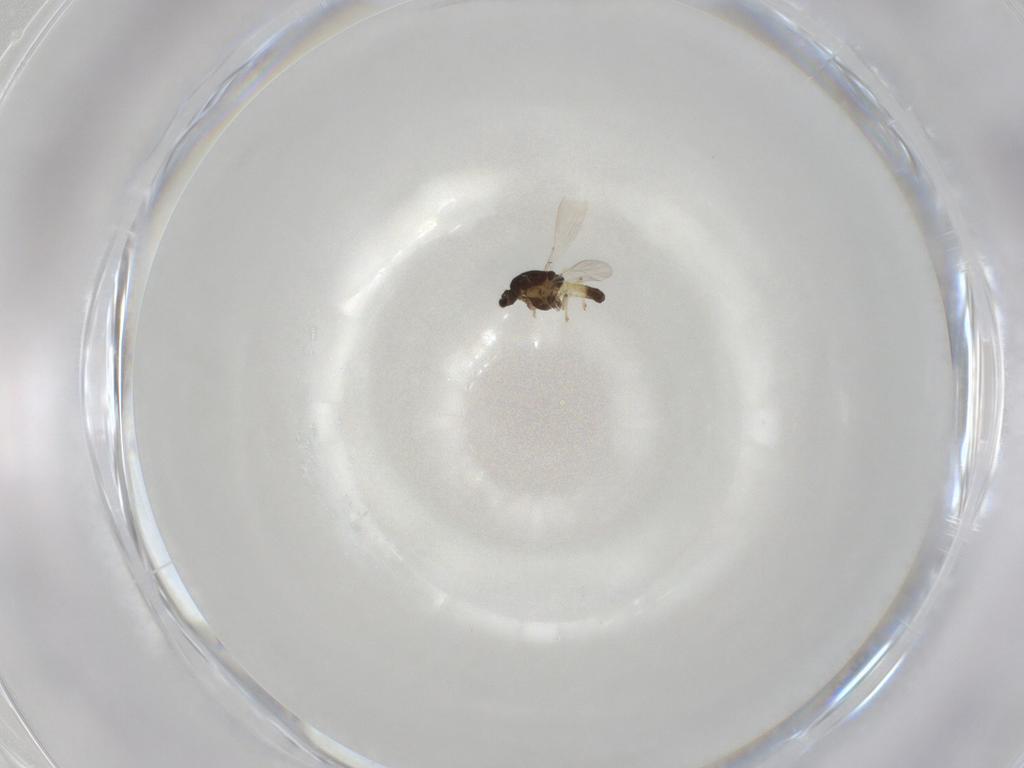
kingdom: Animalia
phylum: Arthropoda
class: Insecta
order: Diptera
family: Chironomidae
